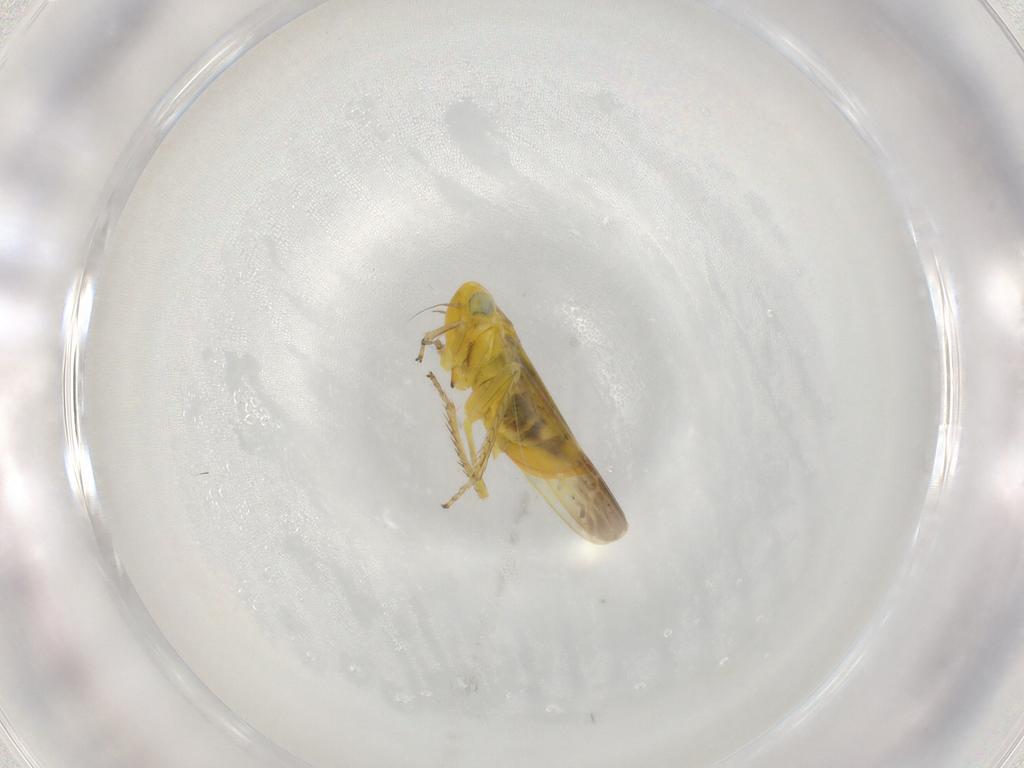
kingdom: Animalia
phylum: Arthropoda
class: Insecta
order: Hemiptera
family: Cicadellidae
